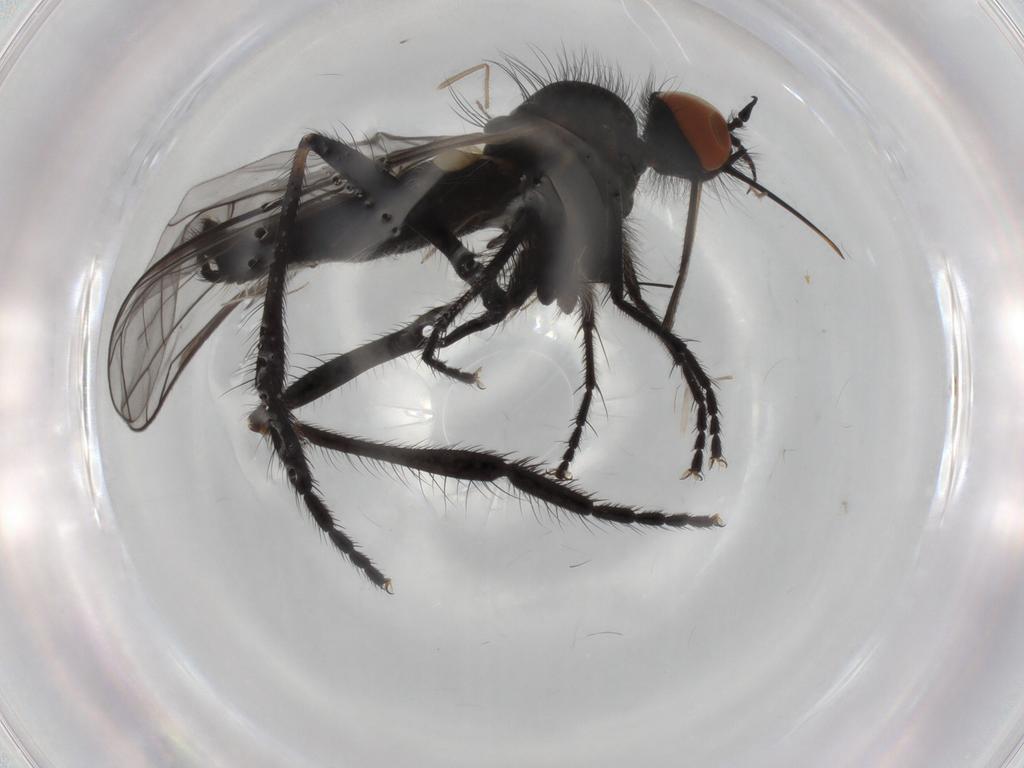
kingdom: Animalia
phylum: Arthropoda
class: Insecta
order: Diptera
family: Empididae
